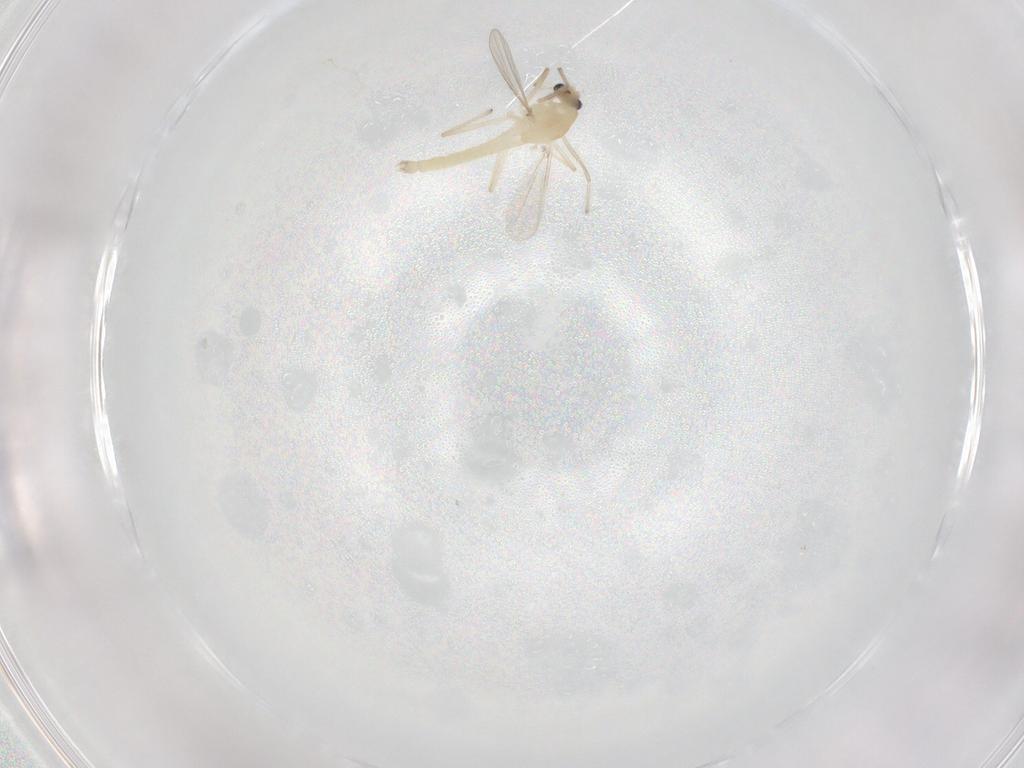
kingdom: Animalia
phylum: Arthropoda
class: Insecta
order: Diptera
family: Chironomidae
